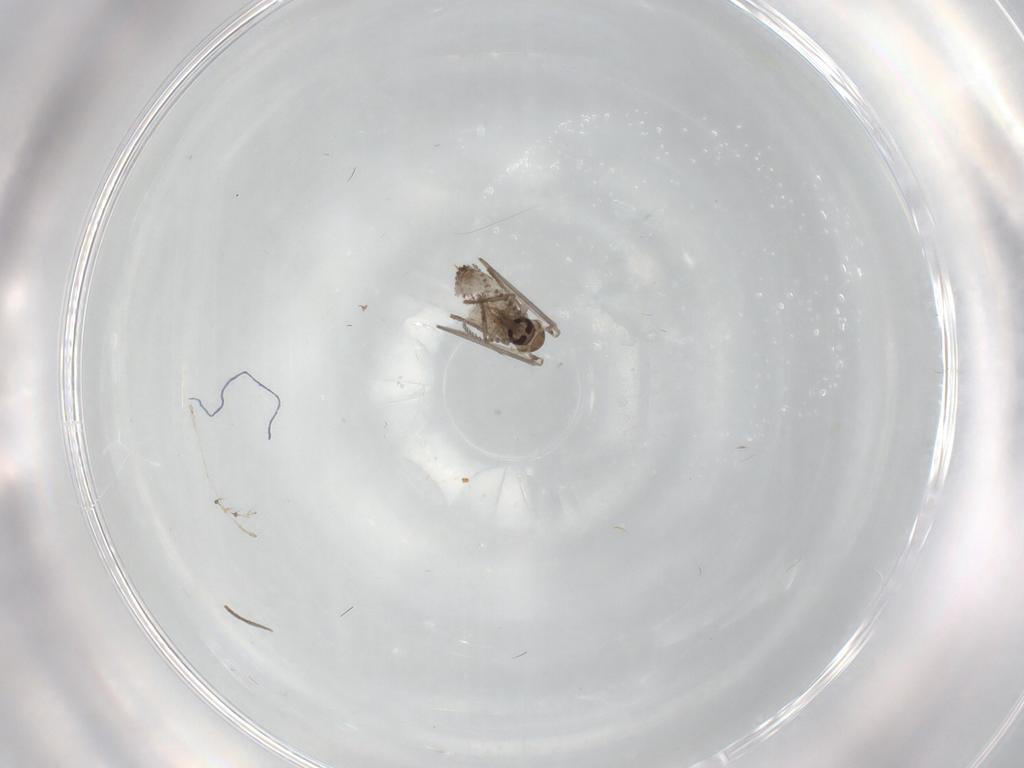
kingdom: Animalia
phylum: Arthropoda
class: Insecta
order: Diptera
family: Psychodidae
